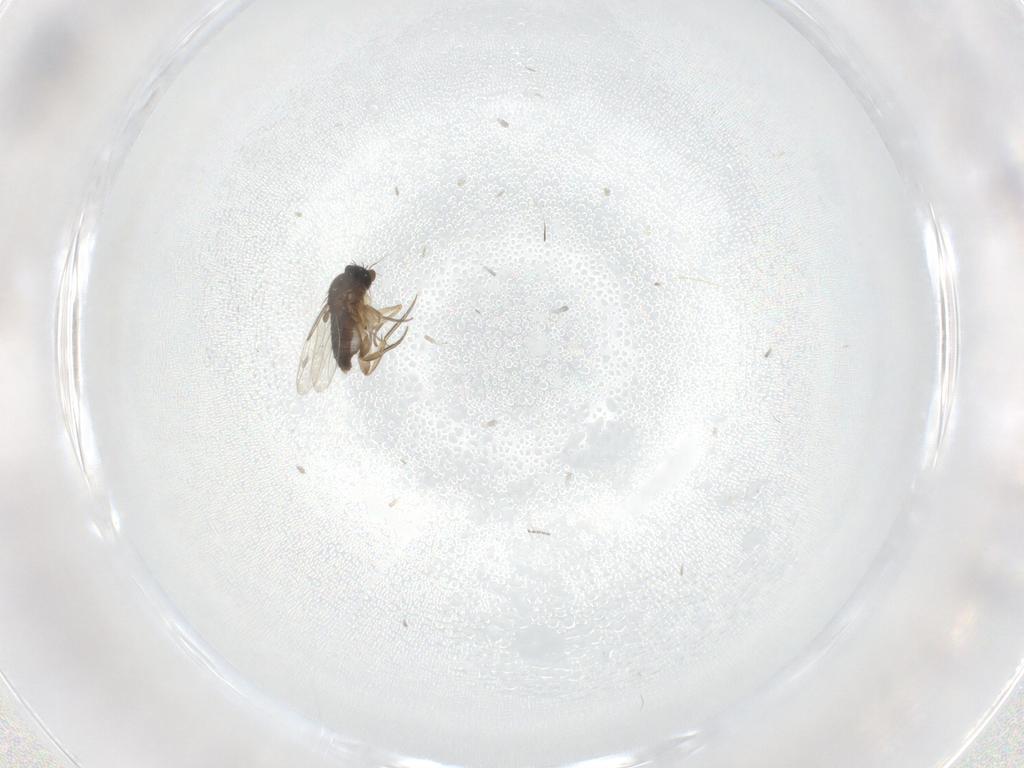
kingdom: Animalia
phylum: Arthropoda
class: Insecta
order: Diptera
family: Cecidomyiidae
